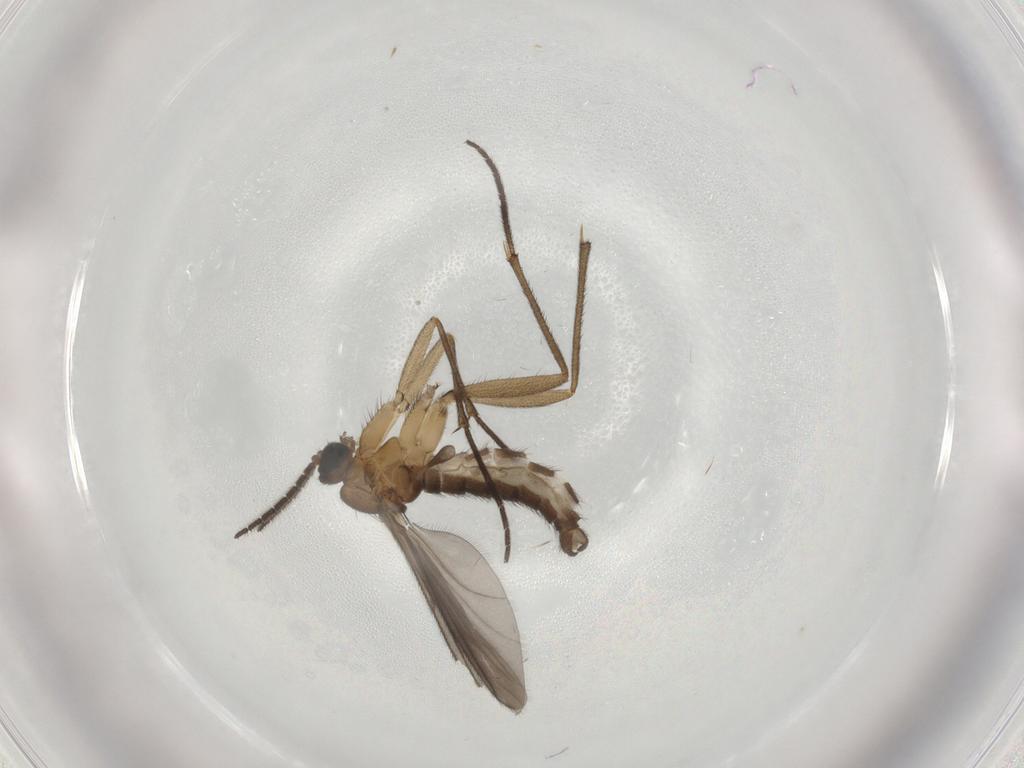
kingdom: Animalia
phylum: Arthropoda
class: Insecta
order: Diptera
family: Sciaridae
